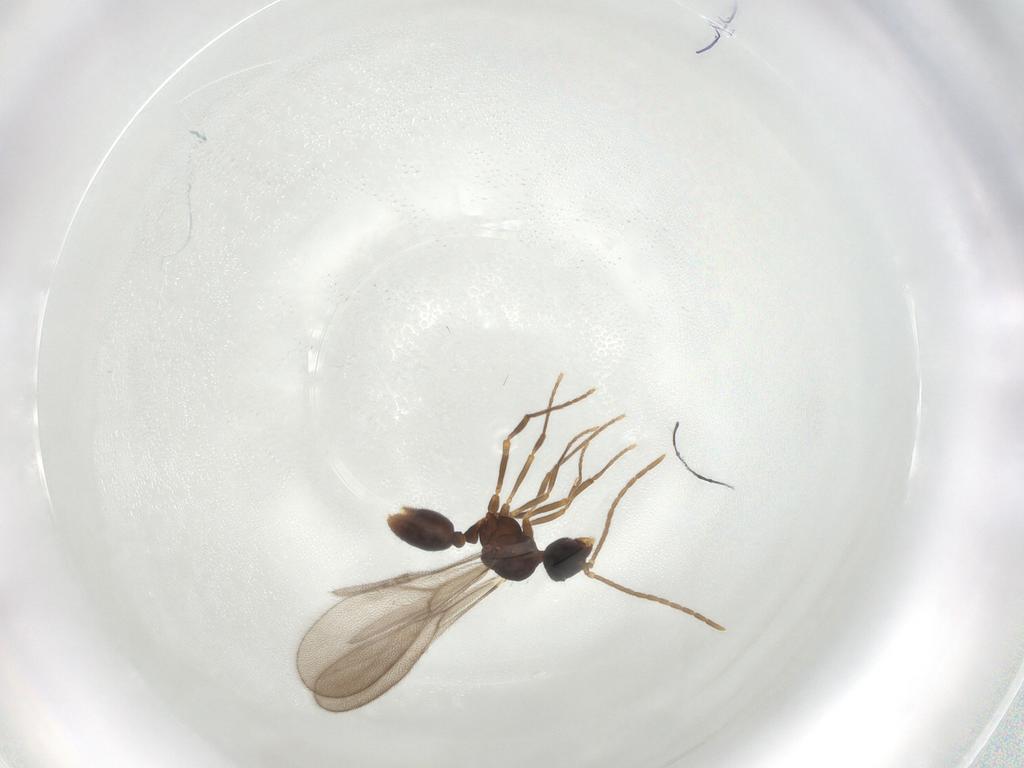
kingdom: Animalia
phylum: Arthropoda
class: Insecta
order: Hymenoptera
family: Formicidae
